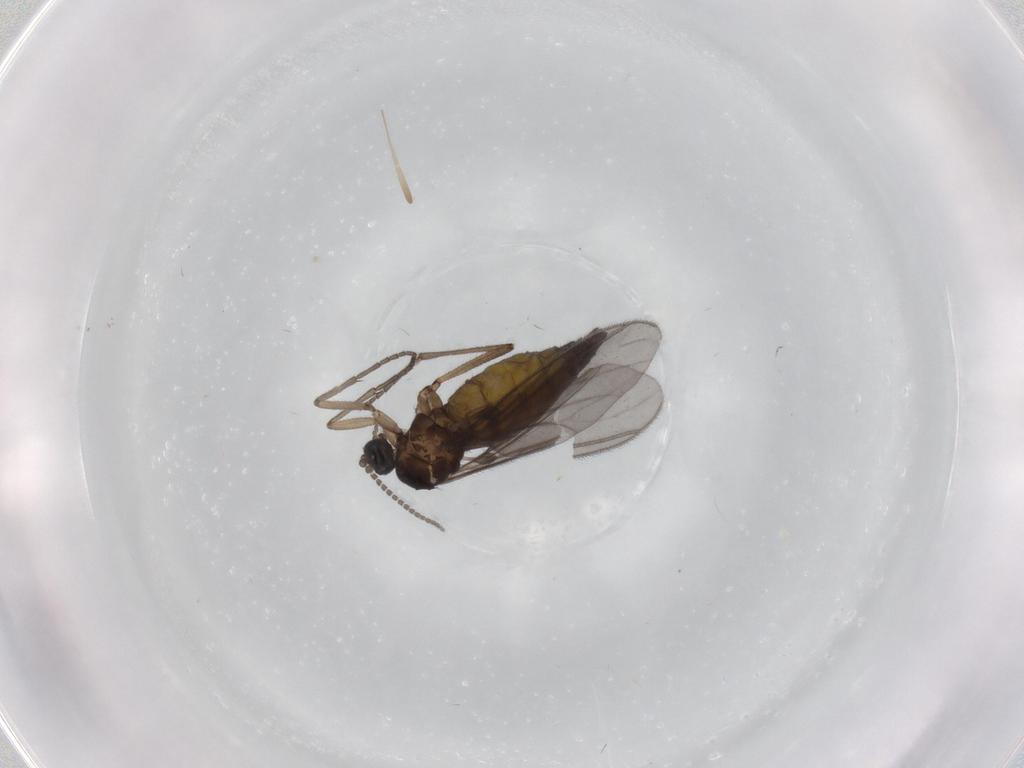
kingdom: Animalia
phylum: Arthropoda
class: Insecta
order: Diptera
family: Sciaridae
